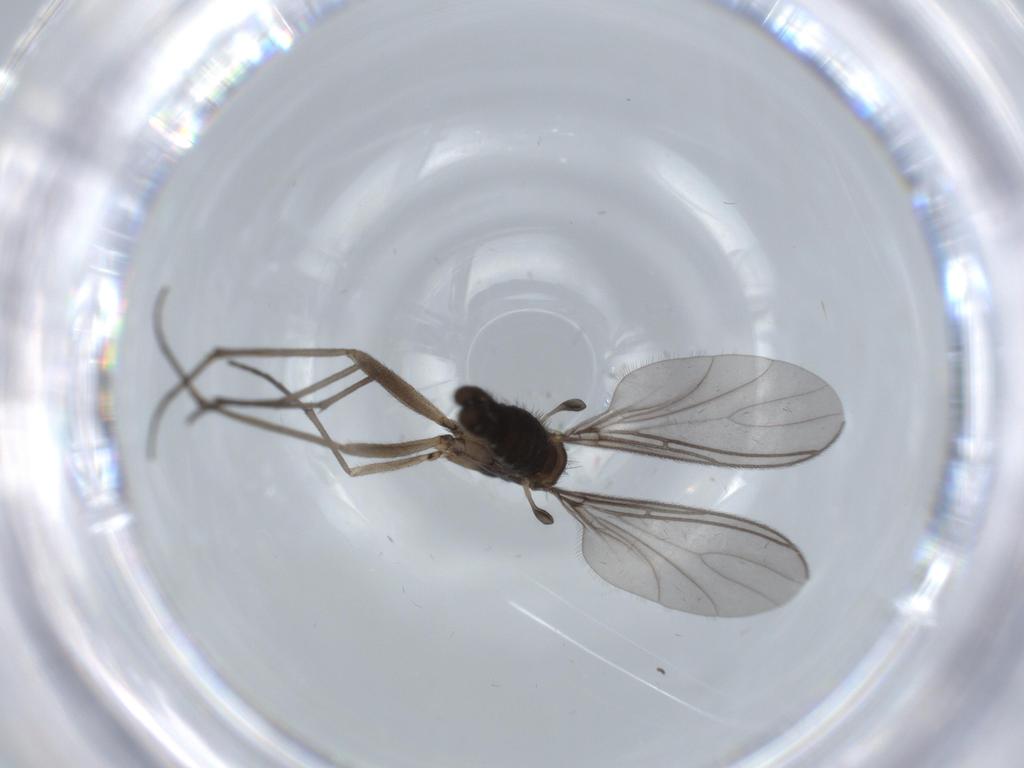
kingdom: Animalia
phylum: Arthropoda
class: Insecta
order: Diptera
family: Sciaridae
